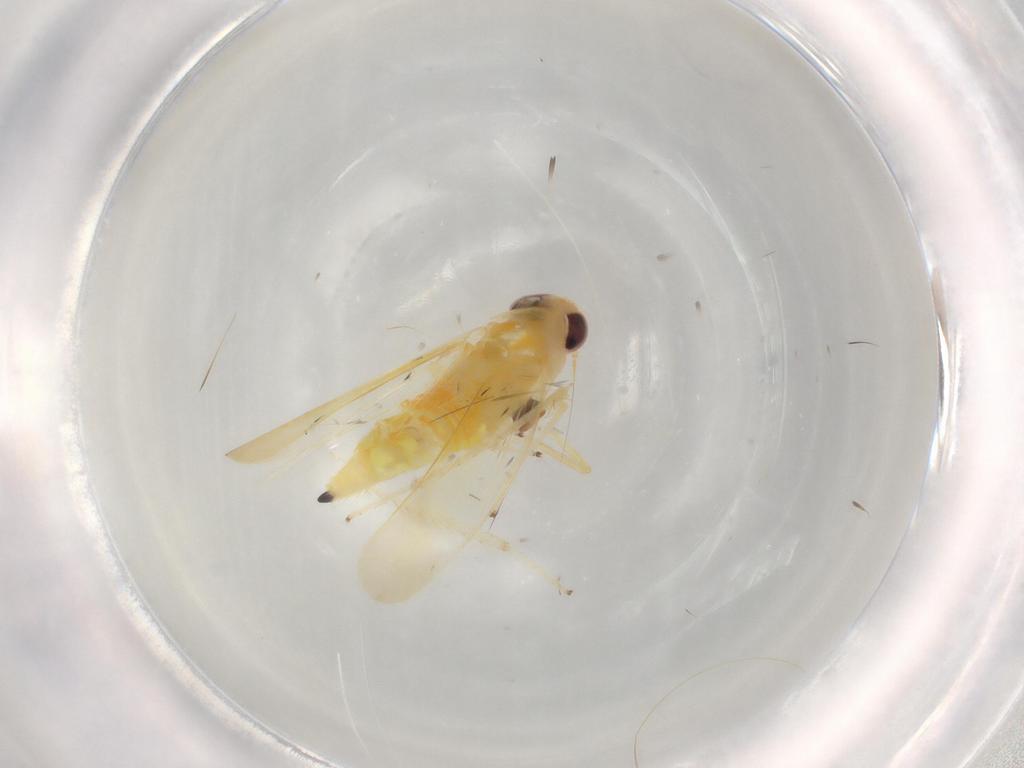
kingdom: Animalia
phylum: Arthropoda
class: Insecta
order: Hemiptera
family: Cicadellidae
